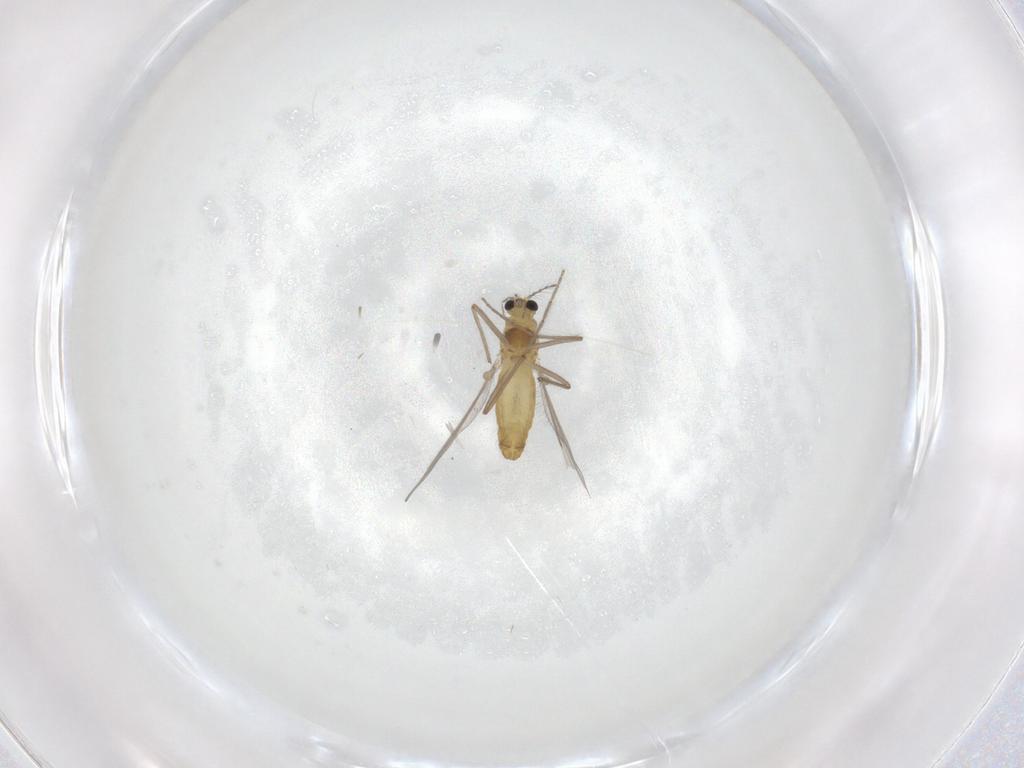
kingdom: Animalia
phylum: Arthropoda
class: Insecta
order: Diptera
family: Chironomidae
